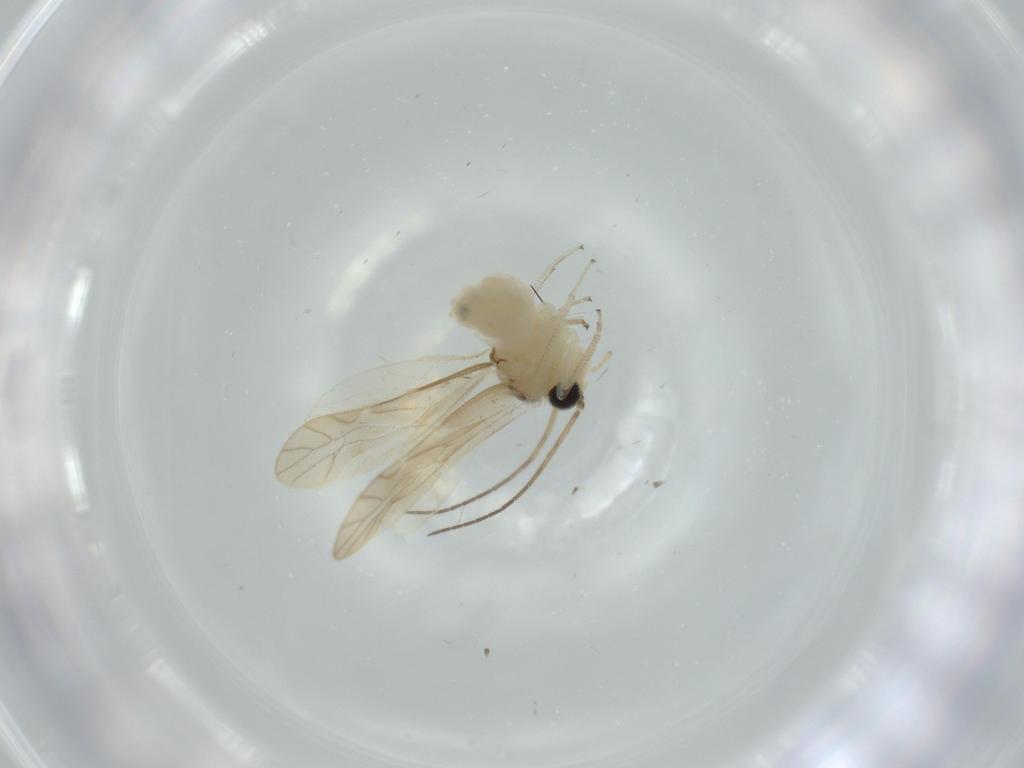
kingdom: Animalia
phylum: Arthropoda
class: Insecta
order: Psocodea
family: Caeciliusidae
